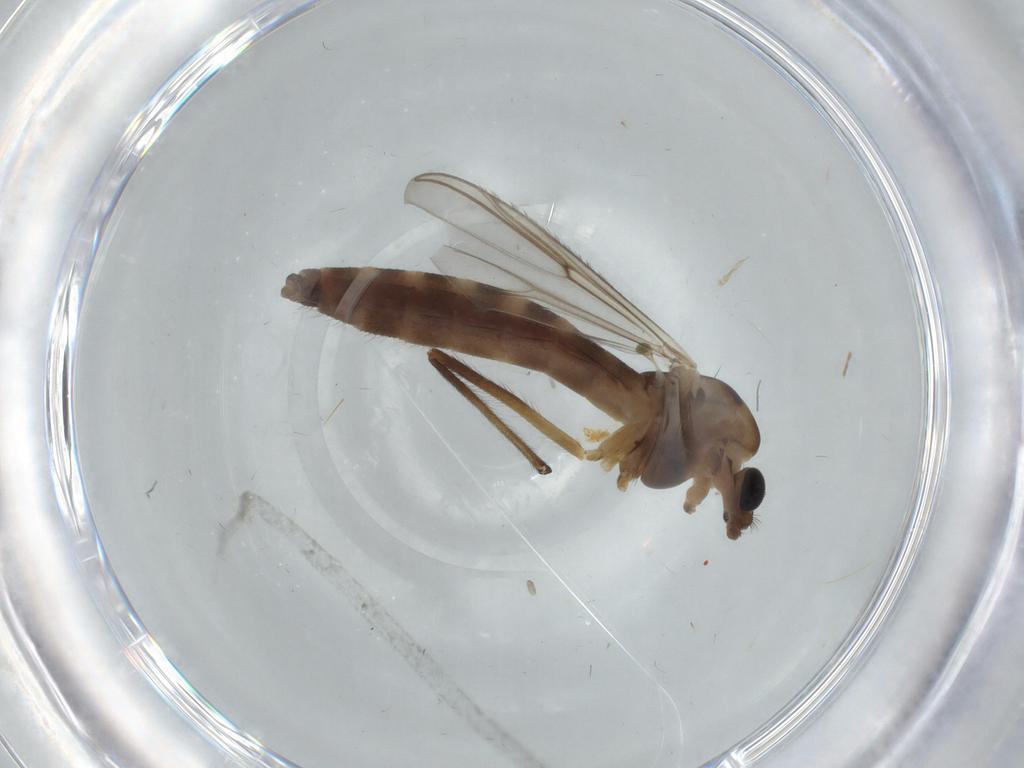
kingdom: Animalia
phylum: Arthropoda
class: Insecta
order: Diptera
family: Chironomidae
